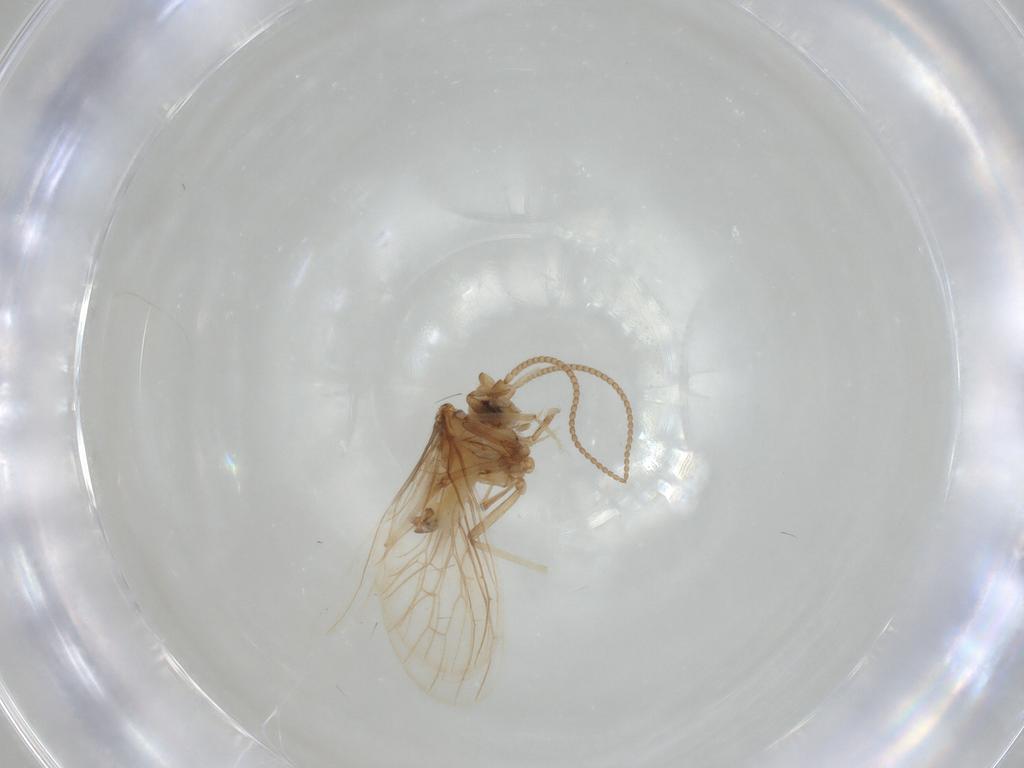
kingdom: Animalia
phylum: Arthropoda
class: Insecta
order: Neuroptera
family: Coniopterygidae
